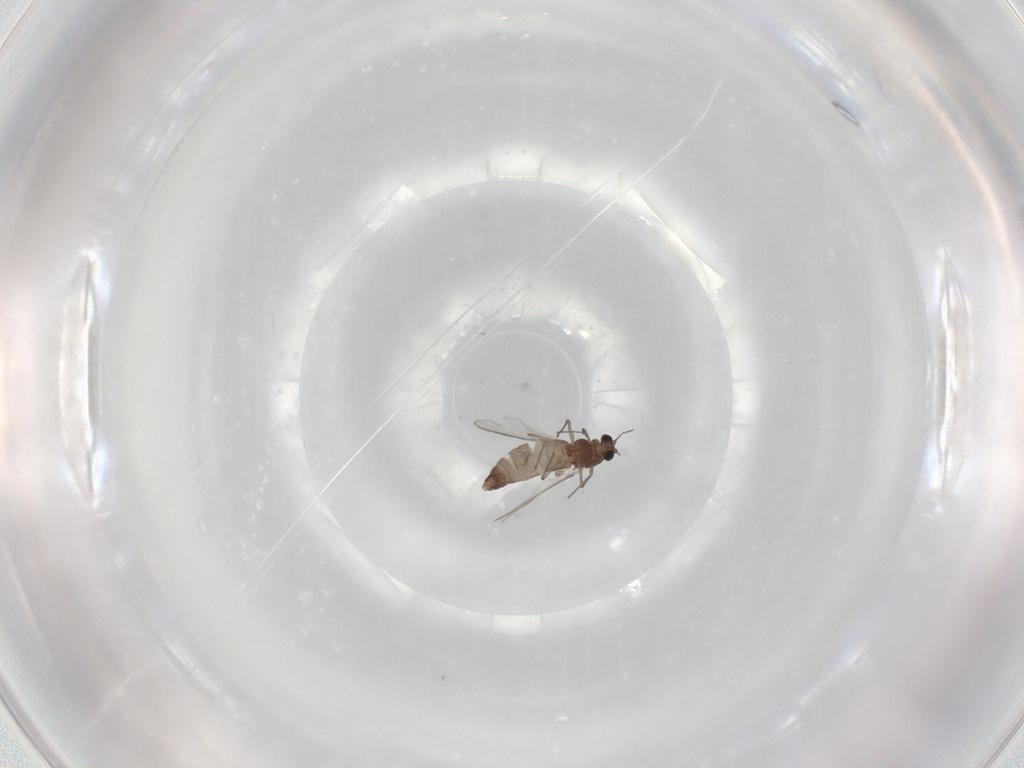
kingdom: Animalia
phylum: Arthropoda
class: Insecta
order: Diptera
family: Chironomidae
